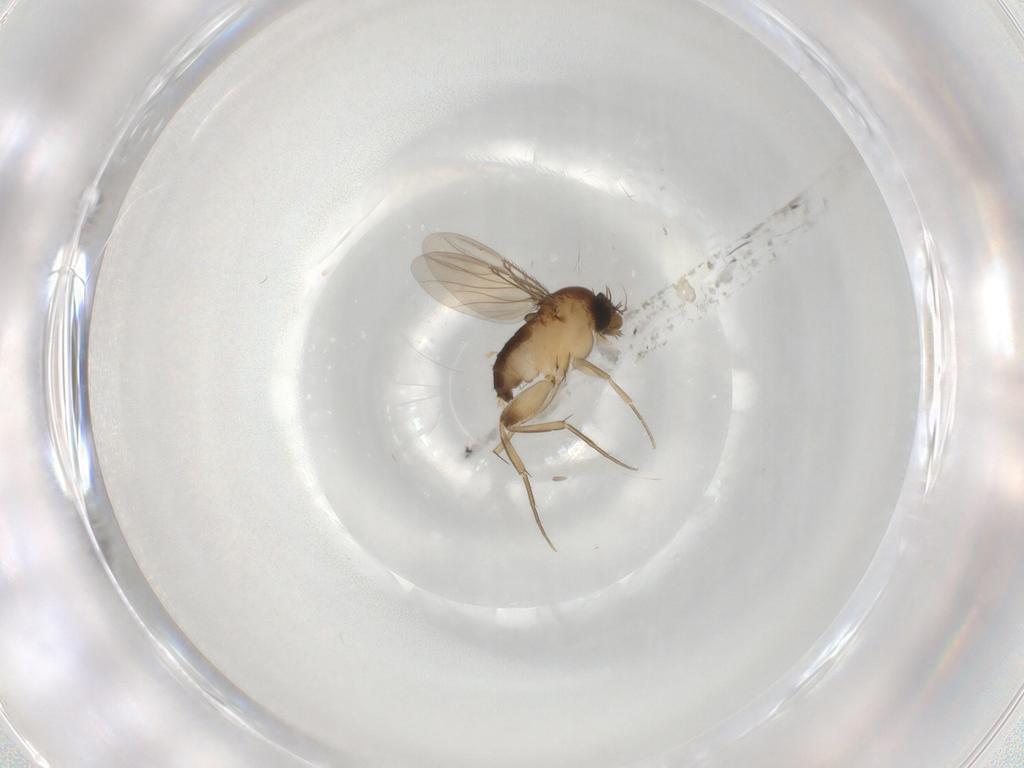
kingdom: Animalia
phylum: Arthropoda
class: Insecta
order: Diptera
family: Phoridae
